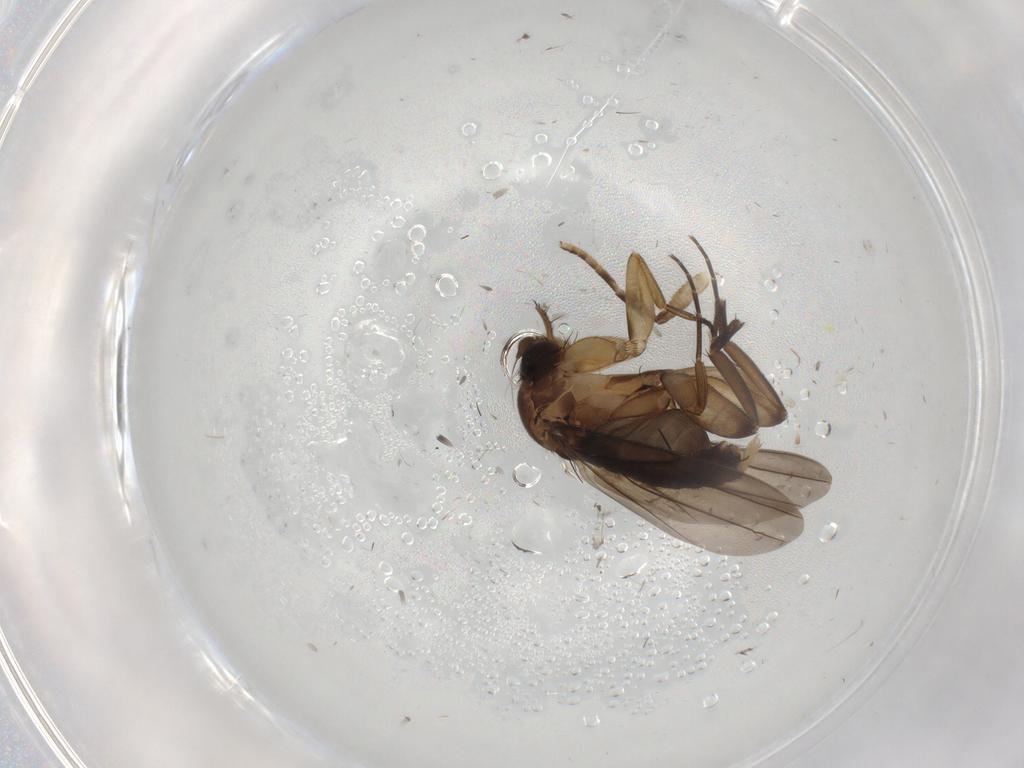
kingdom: Animalia
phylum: Arthropoda
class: Insecta
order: Diptera
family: Phoridae
